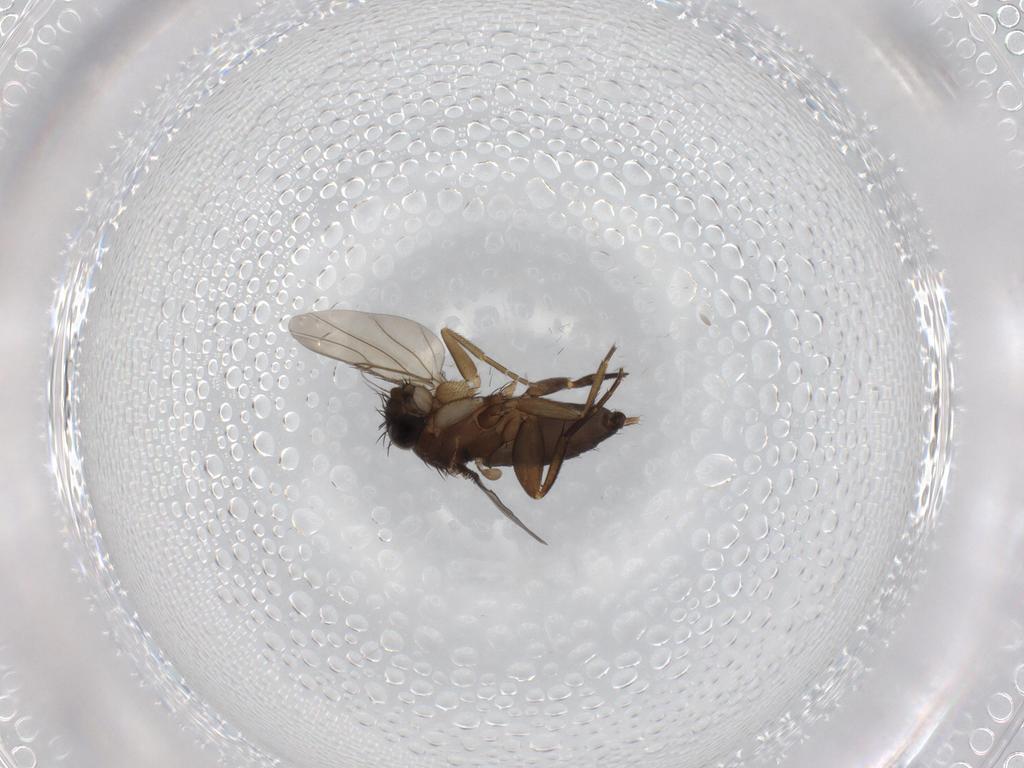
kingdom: Animalia
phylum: Arthropoda
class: Insecta
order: Diptera
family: Phoridae
